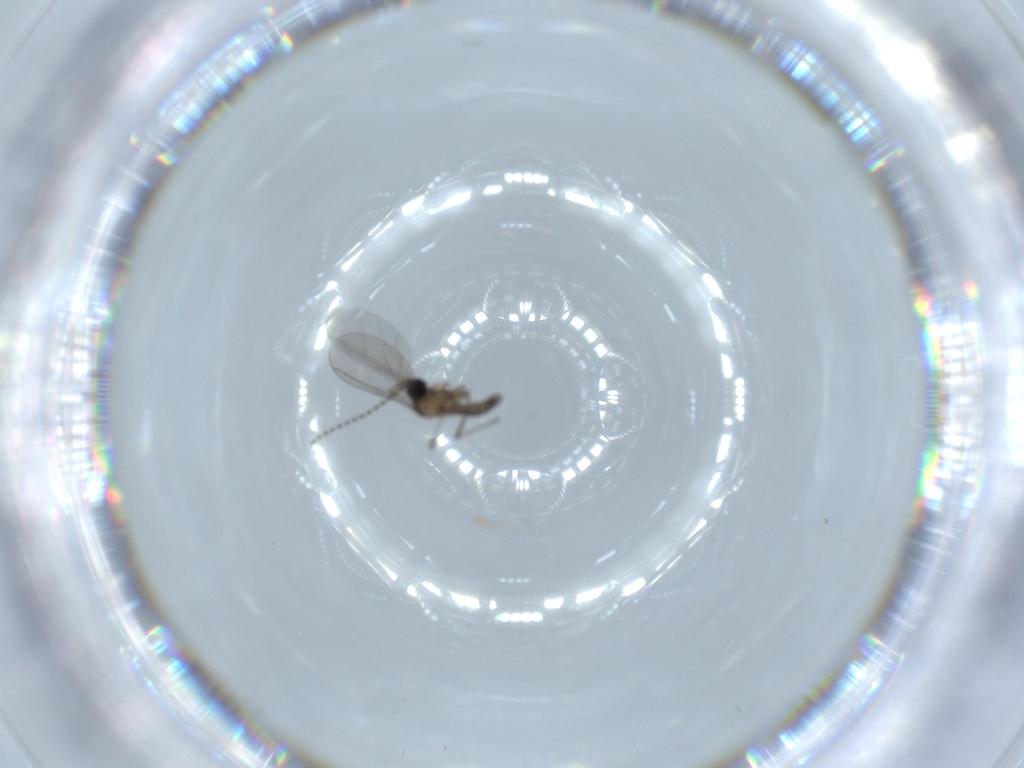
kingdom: Animalia
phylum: Arthropoda
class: Insecta
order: Diptera
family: Sciaridae
